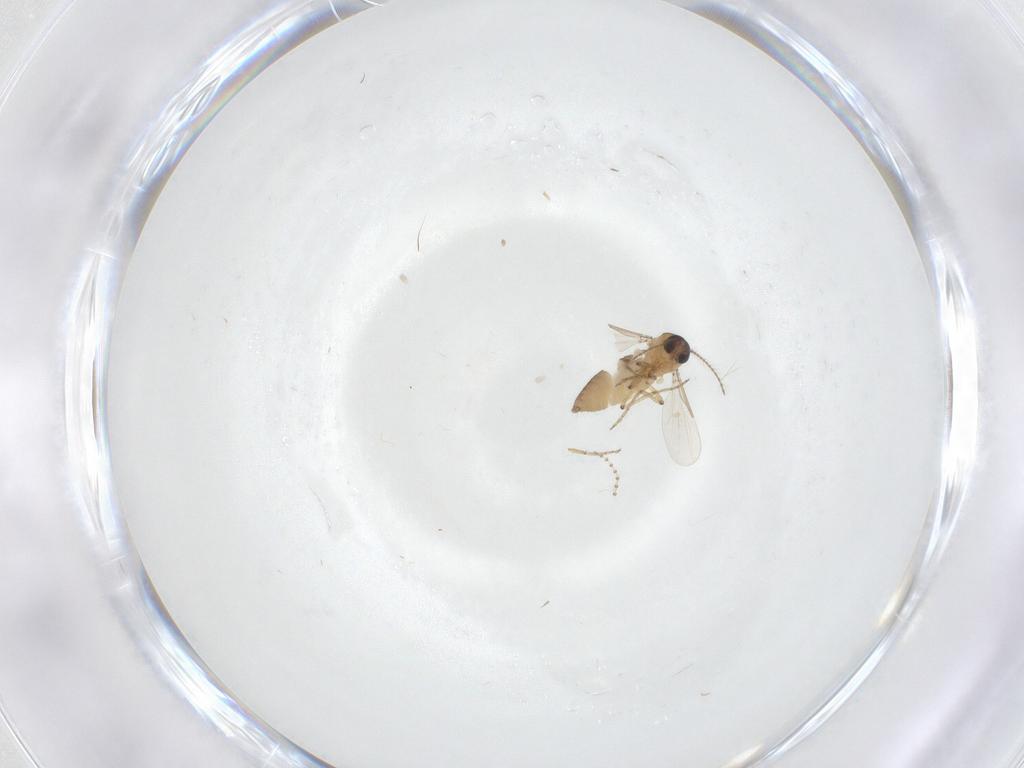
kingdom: Animalia
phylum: Arthropoda
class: Insecta
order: Diptera
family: Ceratopogonidae
